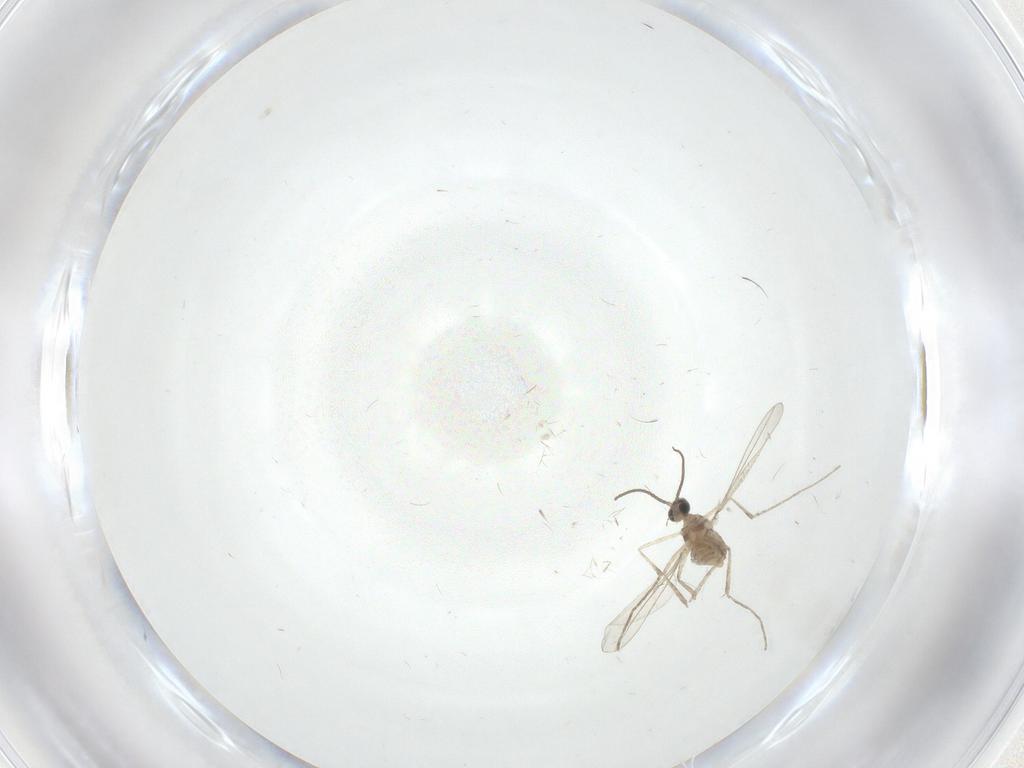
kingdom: Animalia
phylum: Arthropoda
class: Insecta
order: Diptera
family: Cecidomyiidae
